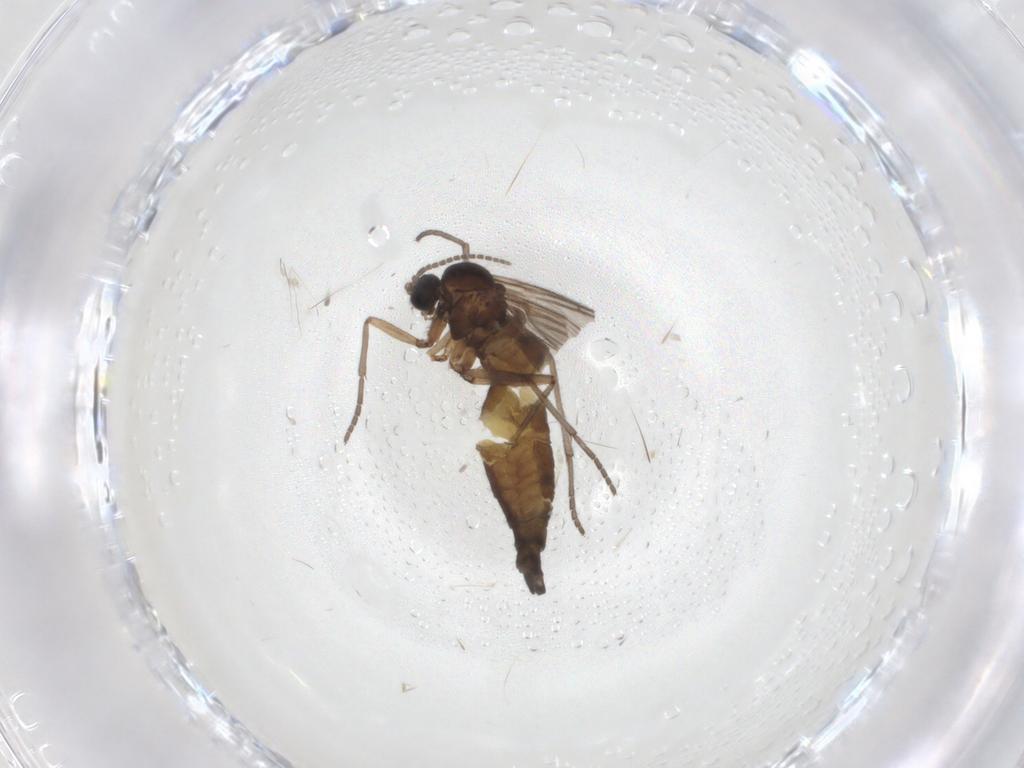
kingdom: Animalia
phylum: Arthropoda
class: Insecta
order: Diptera
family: Sciaridae
